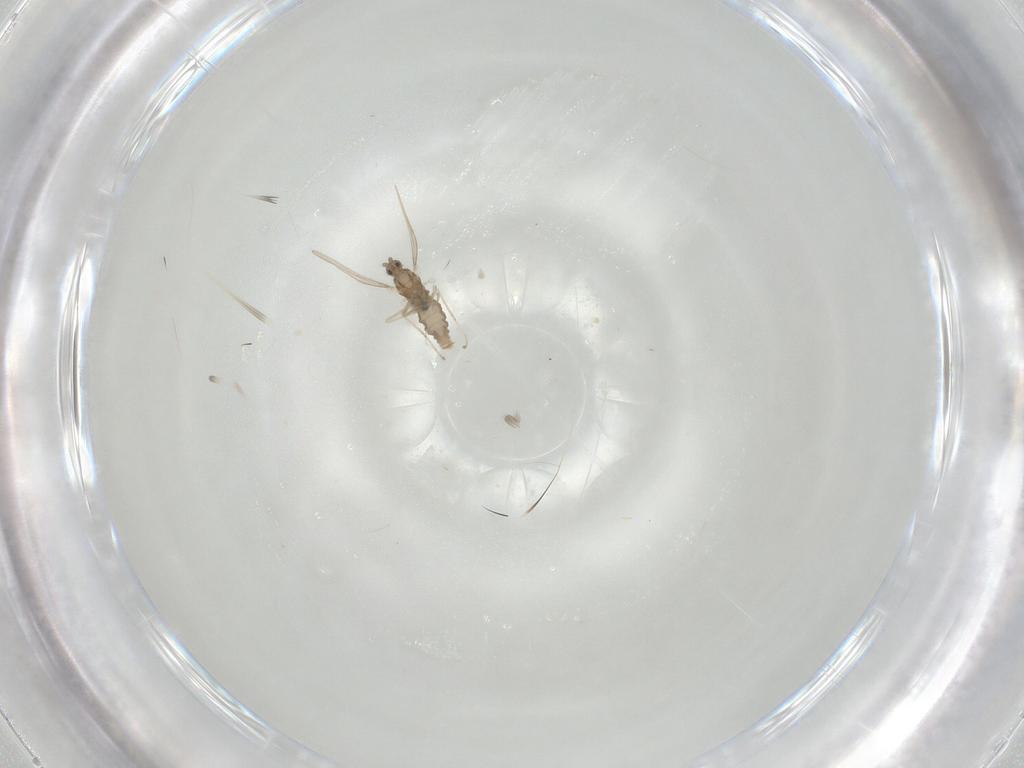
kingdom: Animalia
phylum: Arthropoda
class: Insecta
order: Diptera
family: Cecidomyiidae
